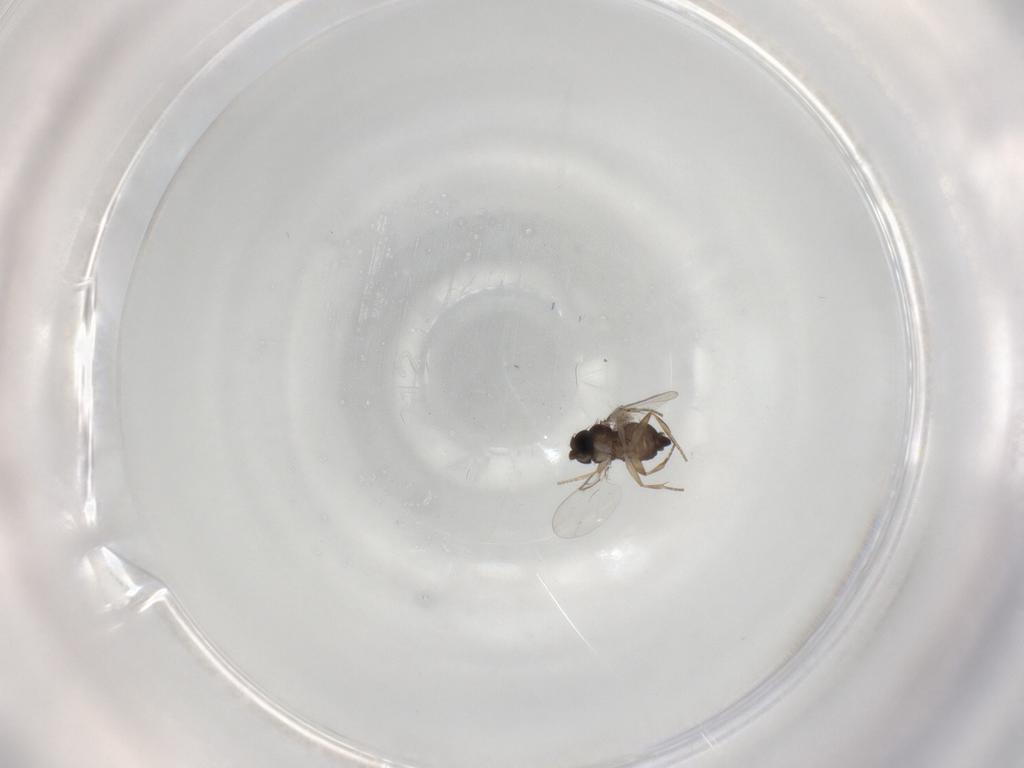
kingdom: Animalia
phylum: Arthropoda
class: Insecta
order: Diptera
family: Phoridae
